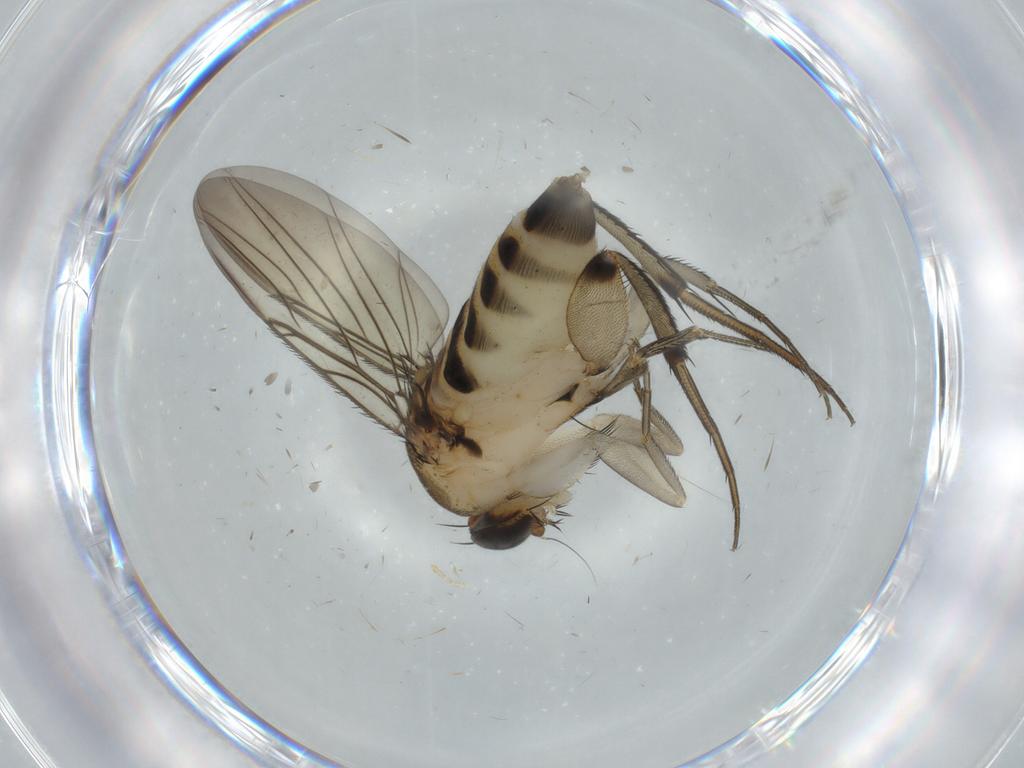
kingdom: Animalia
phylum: Arthropoda
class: Insecta
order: Diptera
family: Phoridae
